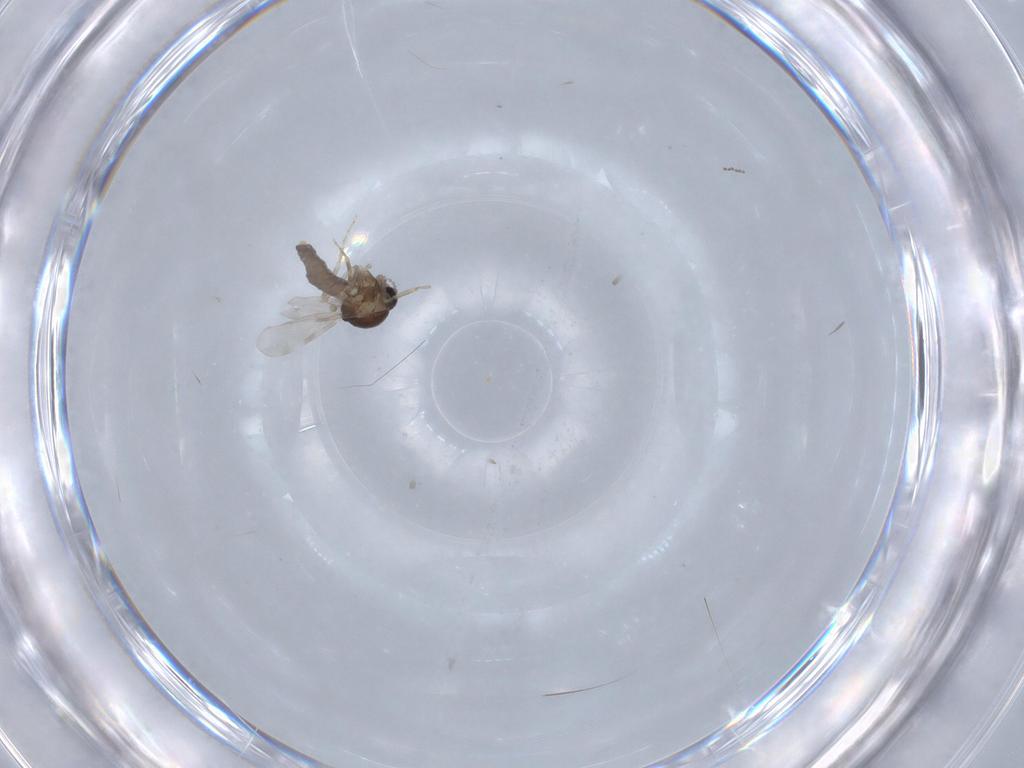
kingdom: Animalia
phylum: Arthropoda
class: Insecta
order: Diptera
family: Ceratopogonidae
